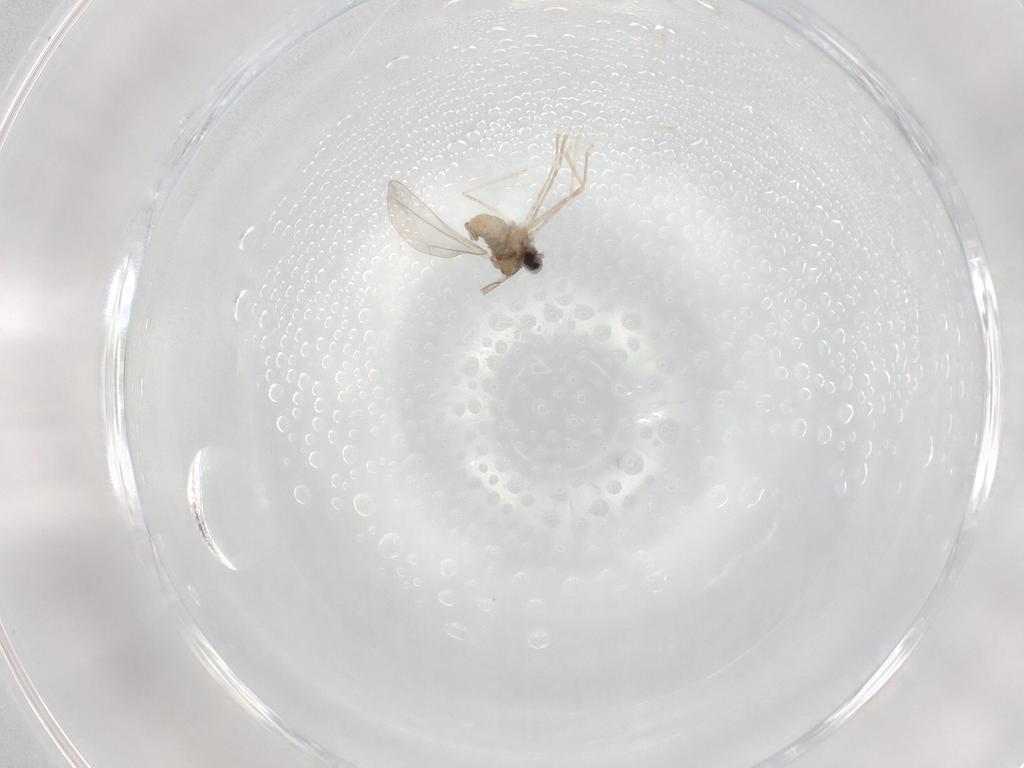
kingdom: Animalia
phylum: Arthropoda
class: Insecta
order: Diptera
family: Cecidomyiidae
